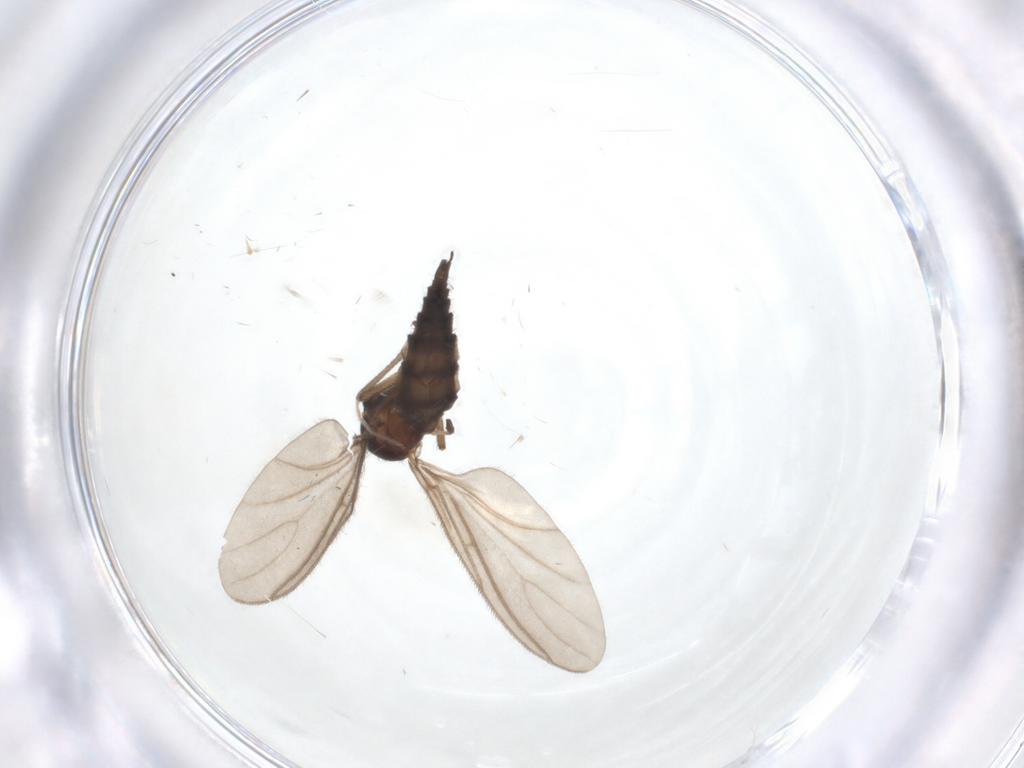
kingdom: Animalia
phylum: Arthropoda
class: Insecta
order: Diptera
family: Sciaridae
